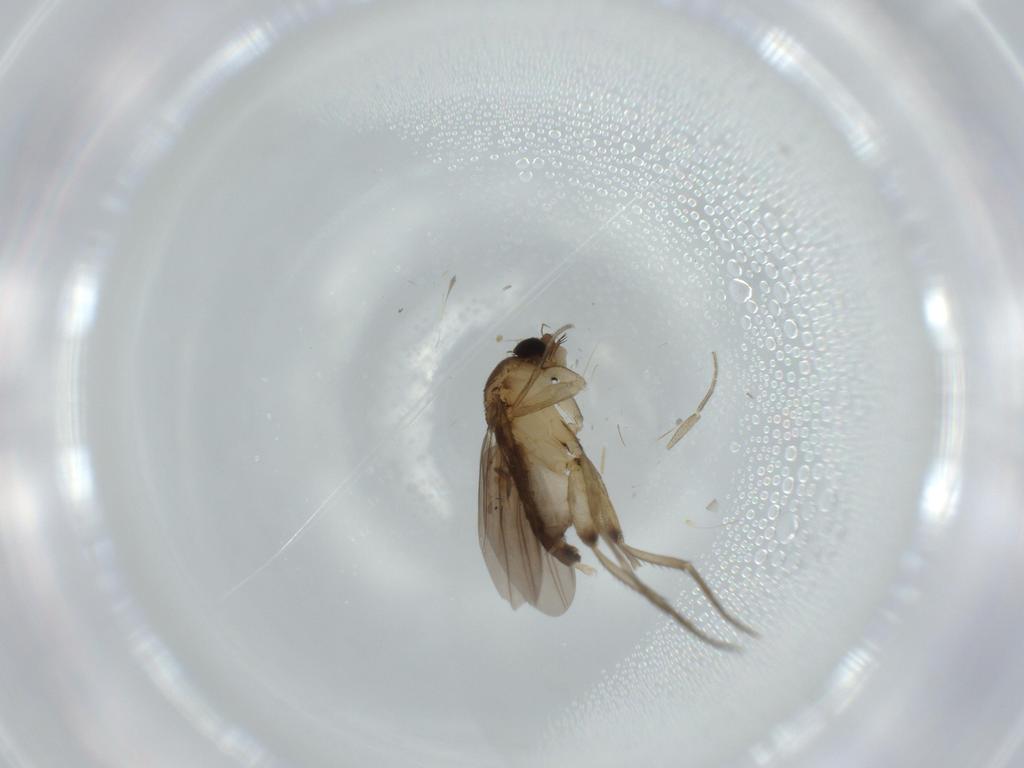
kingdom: Animalia
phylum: Arthropoda
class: Insecta
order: Diptera
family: Phoridae
